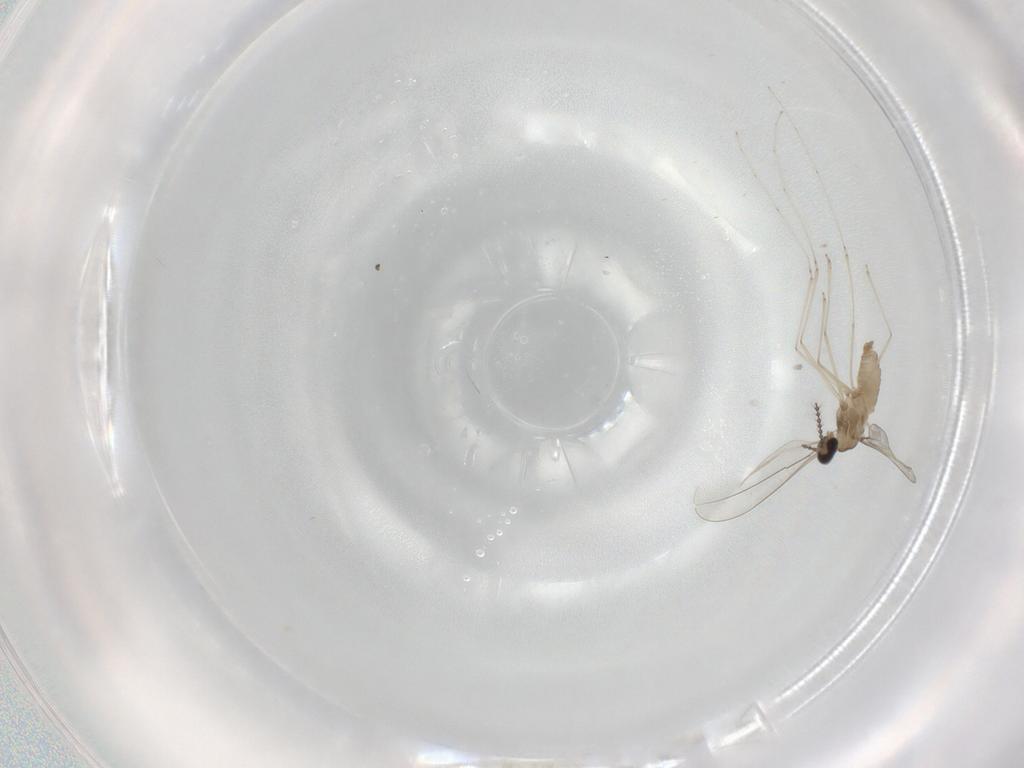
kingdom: Animalia
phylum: Arthropoda
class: Insecta
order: Diptera
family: Cecidomyiidae
